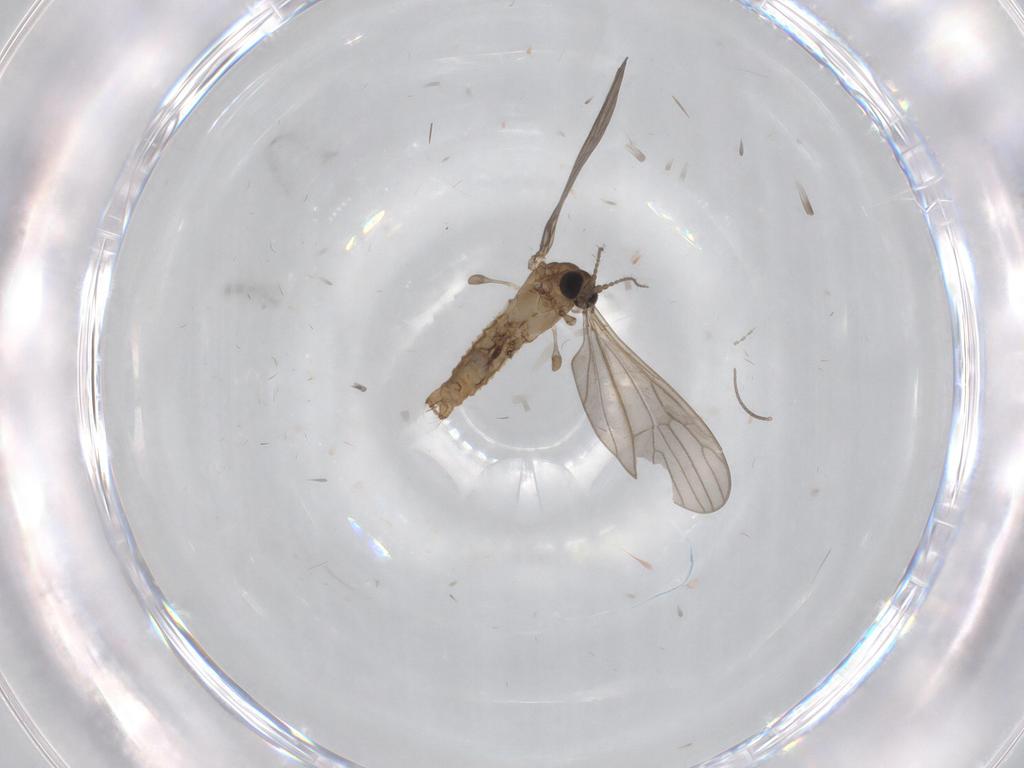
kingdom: Animalia
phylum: Arthropoda
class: Insecta
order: Diptera
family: Limoniidae
